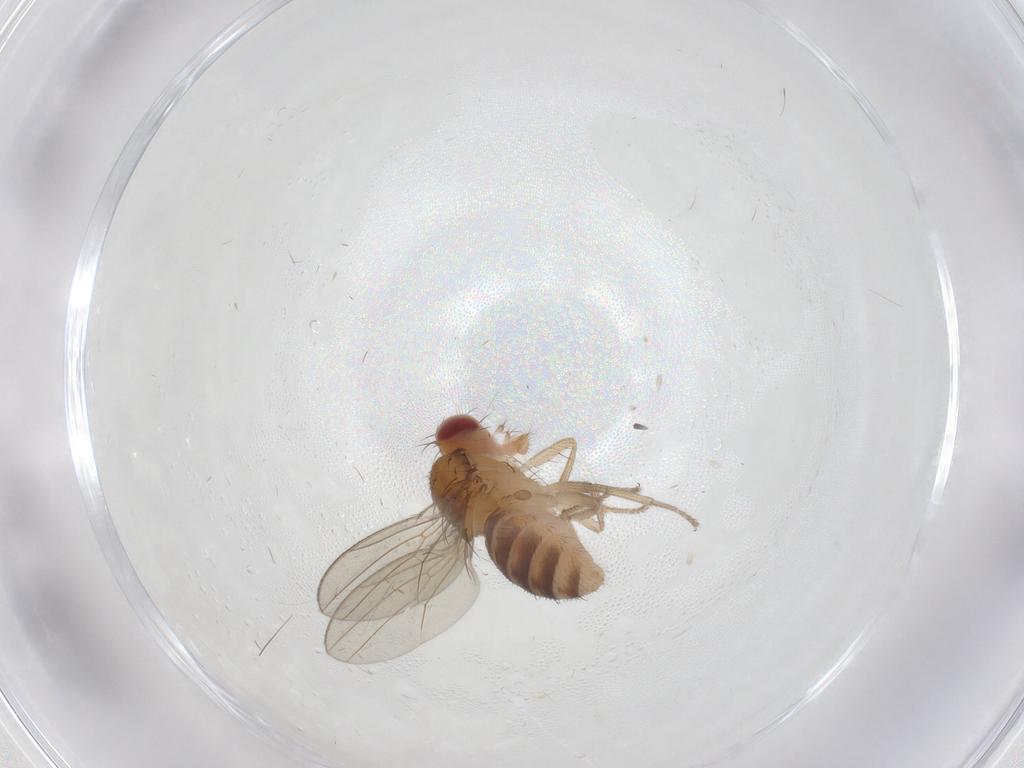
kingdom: Animalia
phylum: Arthropoda
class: Insecta
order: Diptera
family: Drosophilidae
